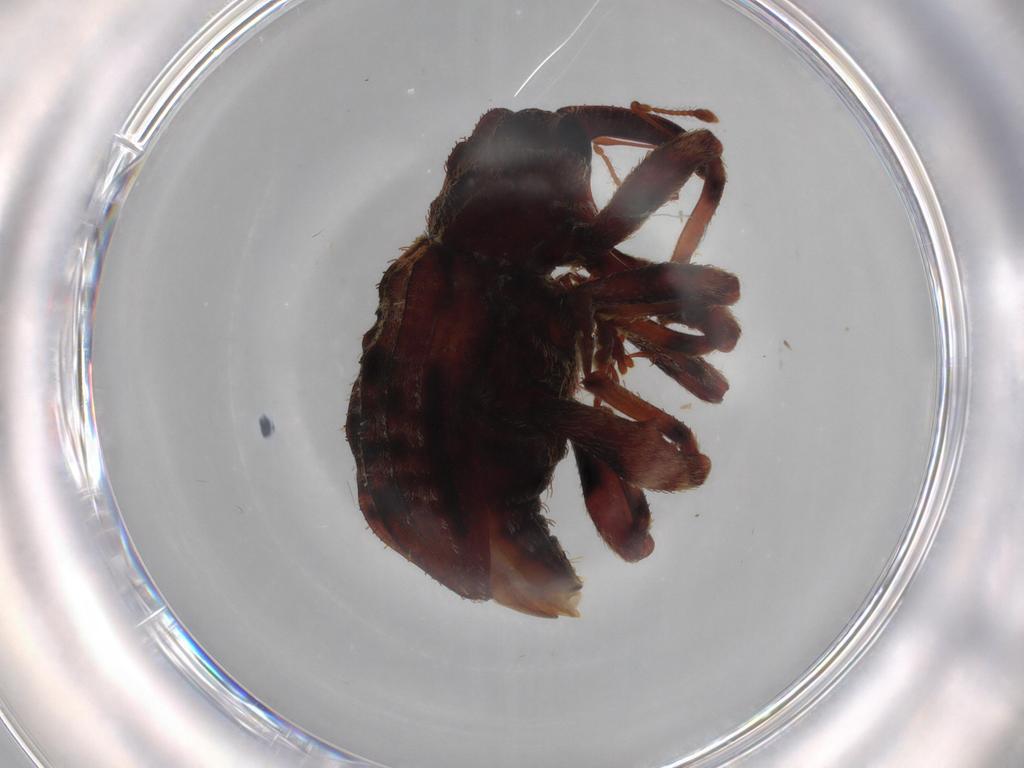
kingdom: Animalia
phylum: Arthropoda
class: Insecta
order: Coleoptera
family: Curculionidae
